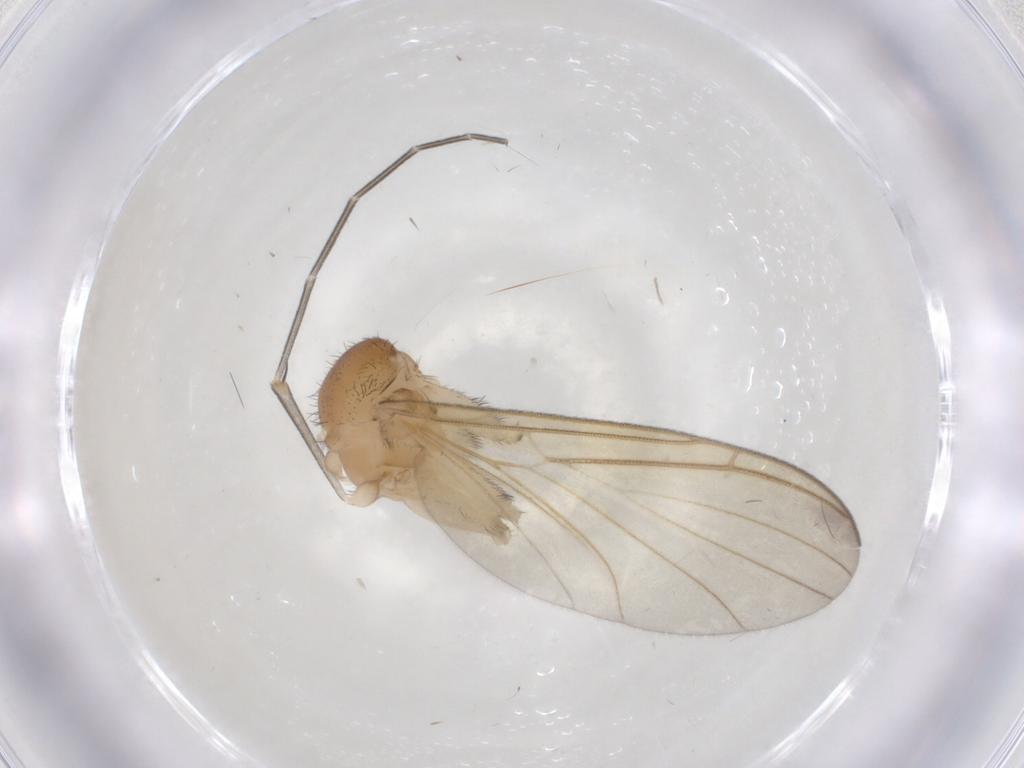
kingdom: Animalia
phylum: Arthropoda
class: Insecta
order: Diptera
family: Keroplatidae
